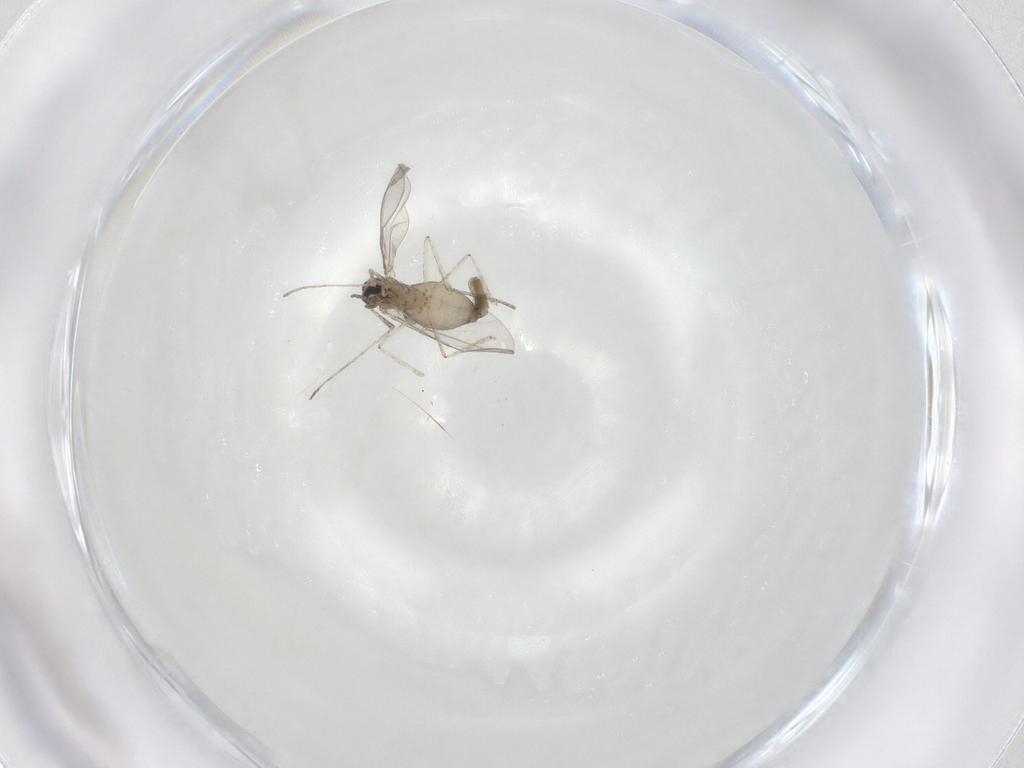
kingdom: Animalia
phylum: Arthropoda
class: Insecta
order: Diptera
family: Cecidomyiidae
